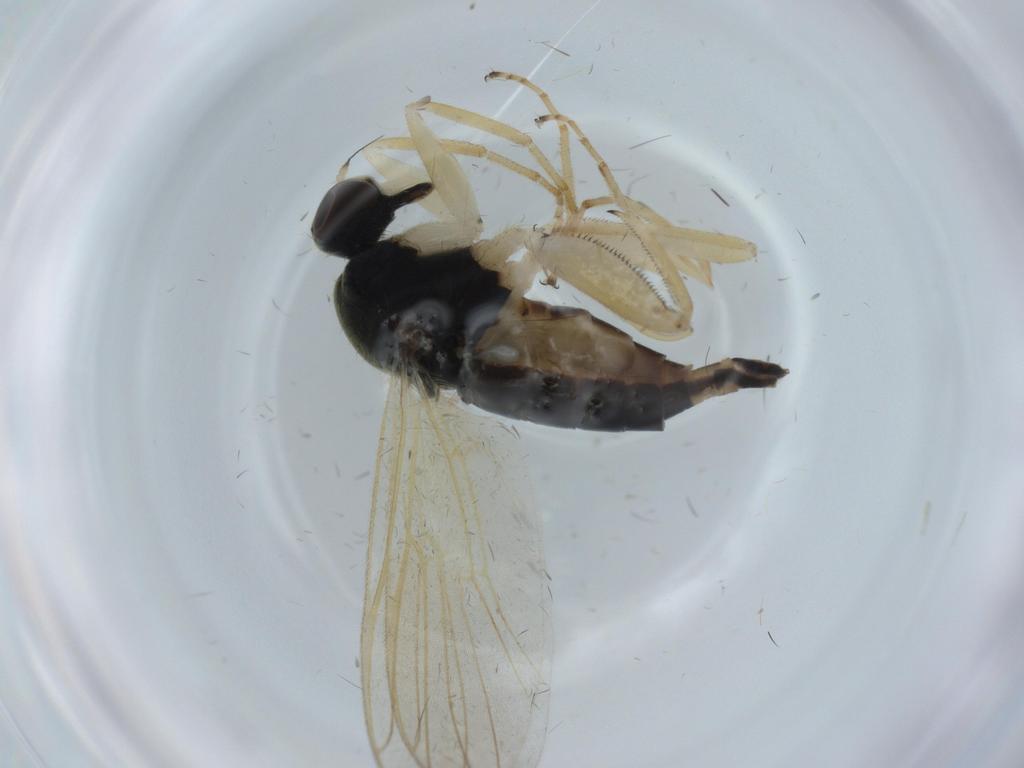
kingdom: Animalia
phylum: Arthropoda
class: Insecta
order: Diptera
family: Hybotidae
